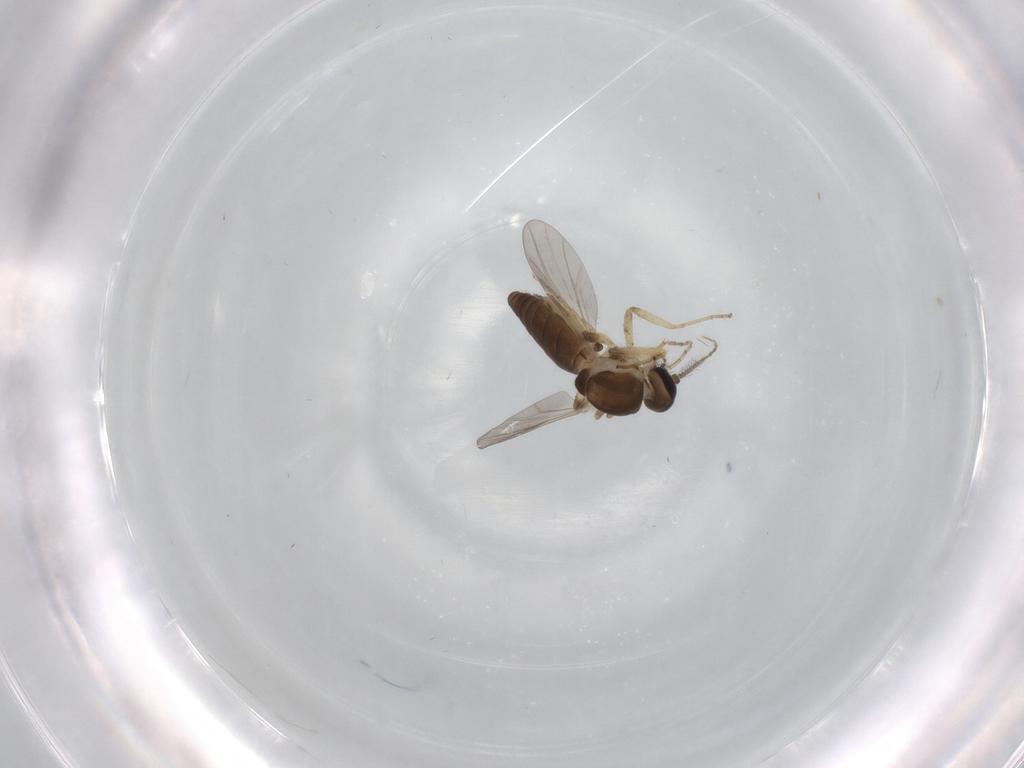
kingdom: Animalia
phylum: Arthropoda
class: Insecta
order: Diptera
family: Ceratopogonidae
